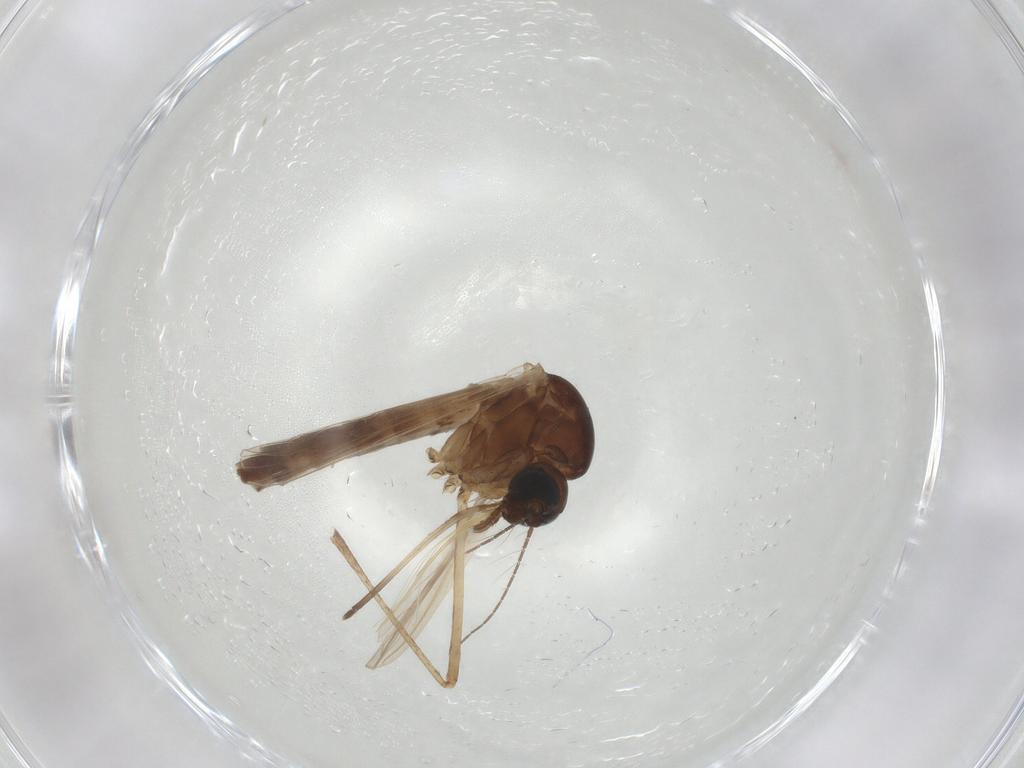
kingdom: Animalia
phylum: Arthropoda
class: Insecta
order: Diptera
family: Culicidae
